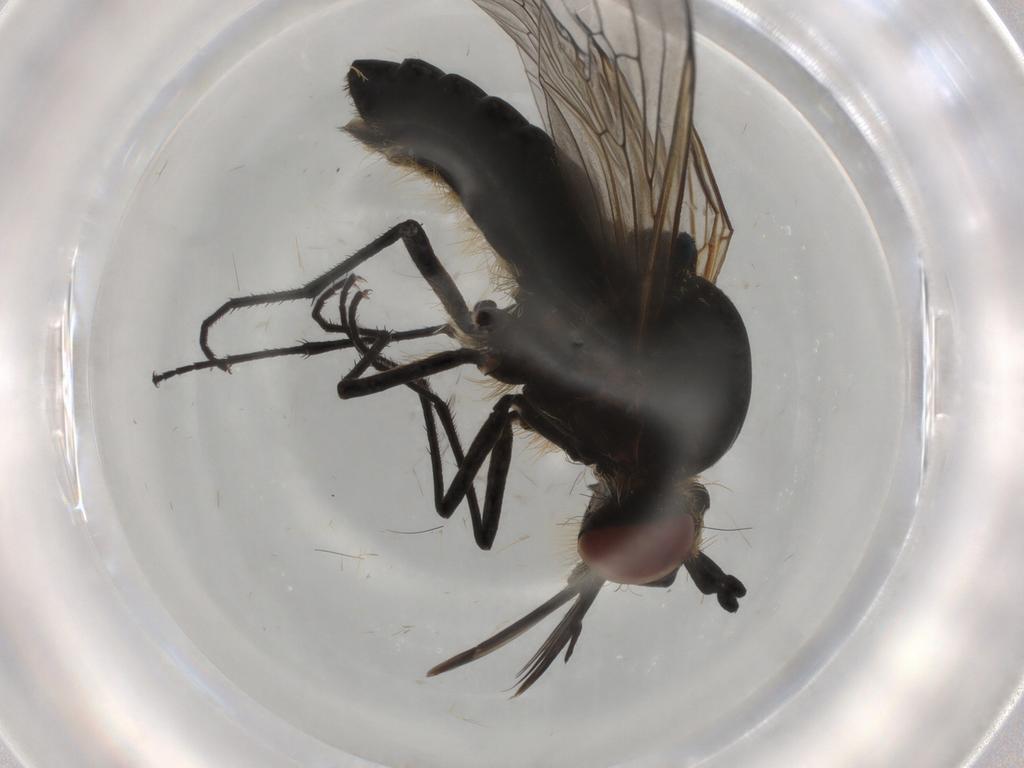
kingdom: Animalia
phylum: Arthropoda
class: Insecta
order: Diptera
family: Bombyliidae
